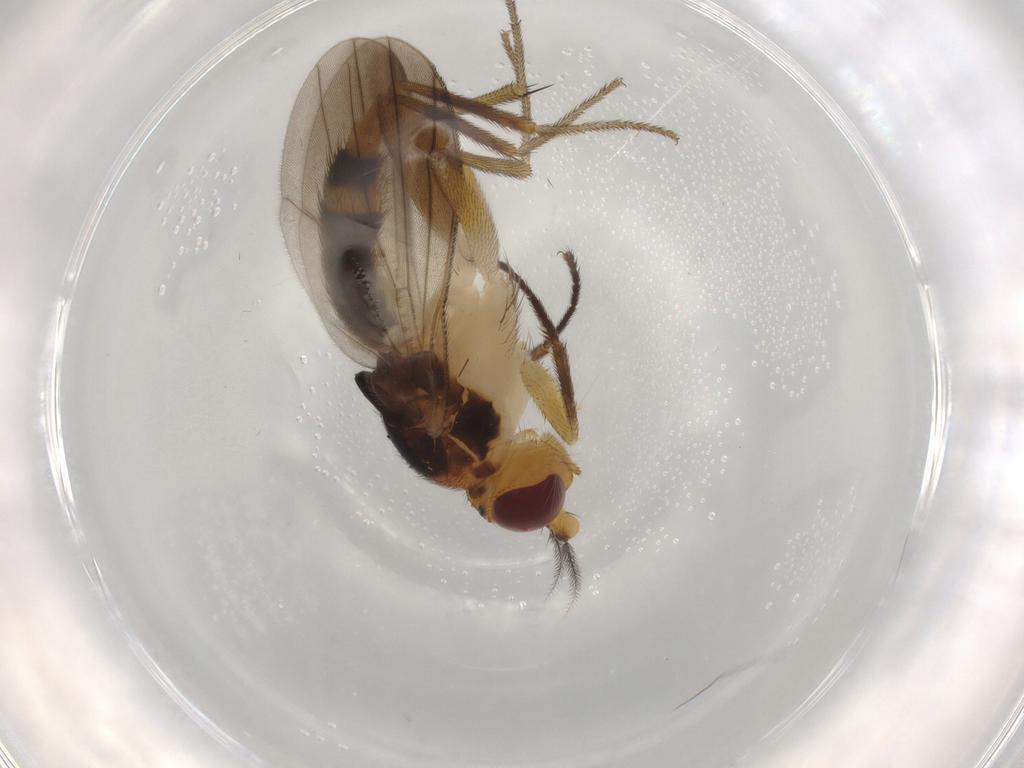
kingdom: Animalia
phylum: Arthropoda
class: Insecta
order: Diptera
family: Clusiidae
